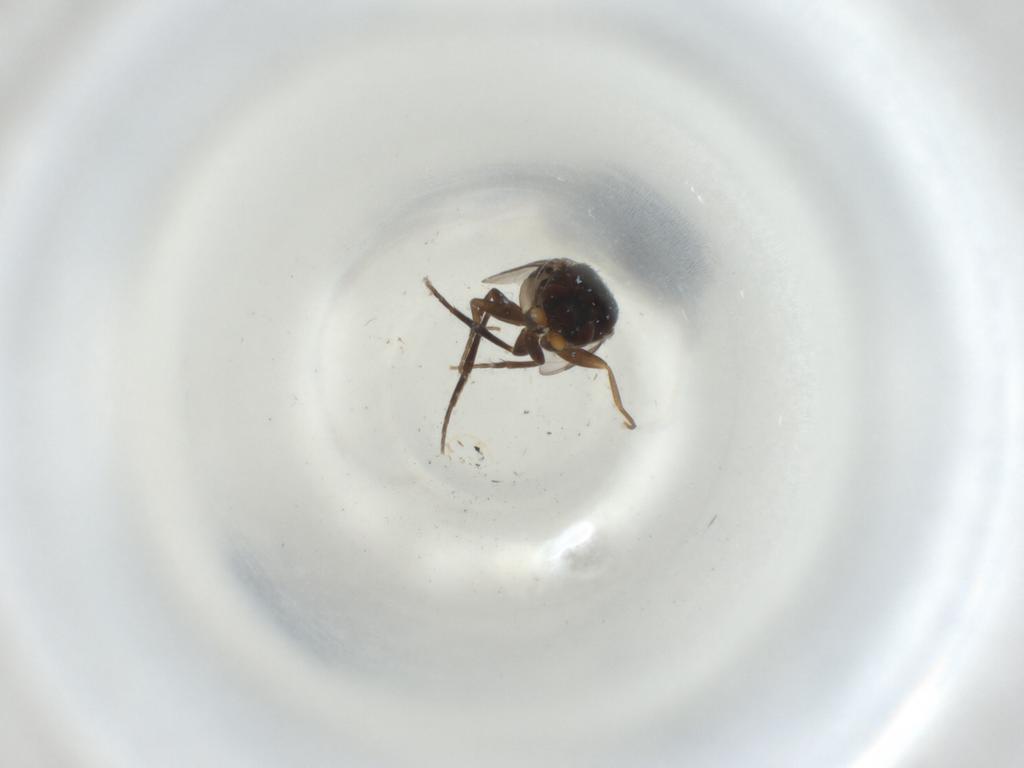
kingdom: Animalia
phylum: Arthropoda
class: Insecta
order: Diptera
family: Phoridae
